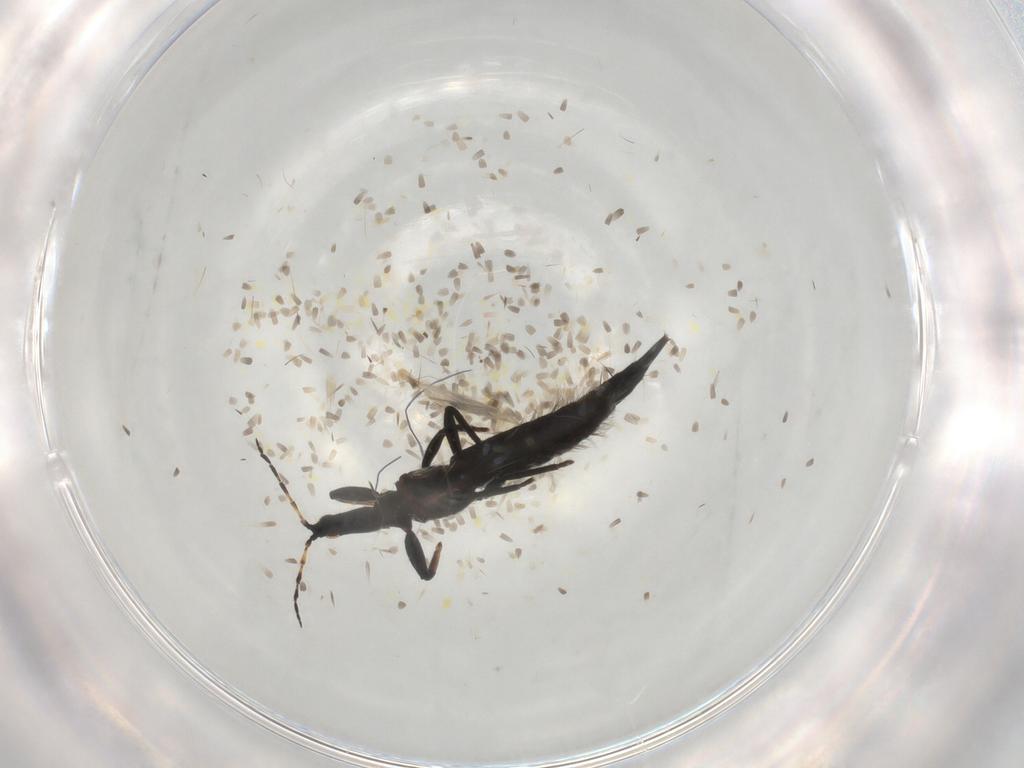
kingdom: Animalia
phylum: Arthropoda
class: Insecta
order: Thysanoptera
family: Phlaeothripidae
